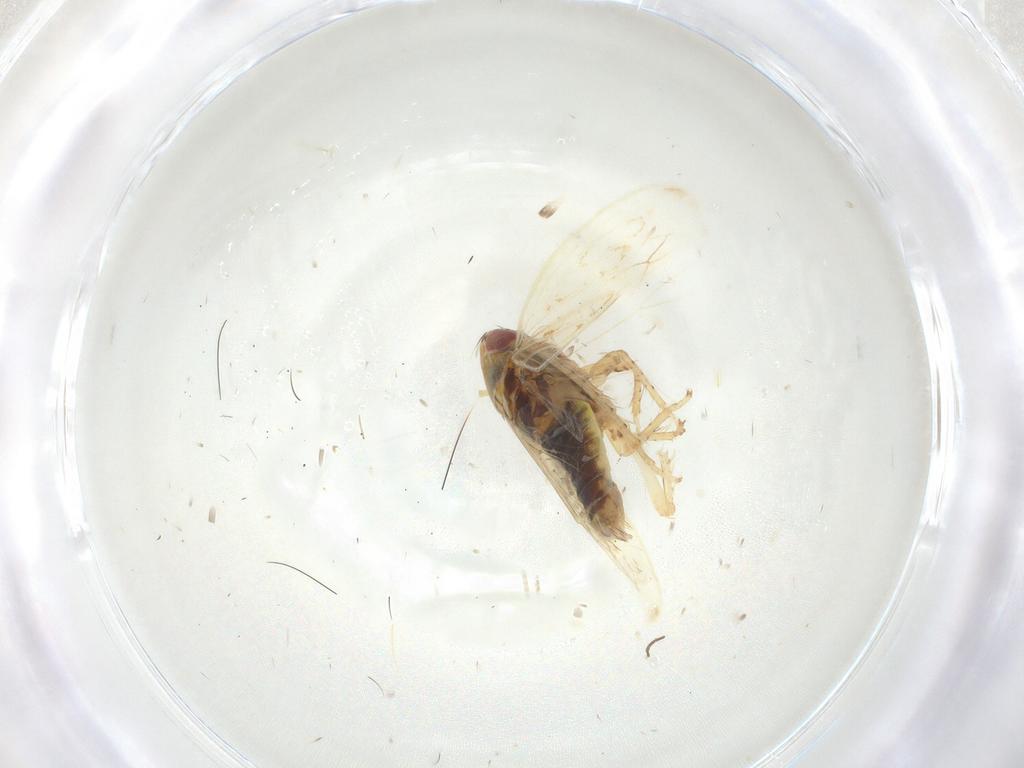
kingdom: Animalia
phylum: Arthropoda
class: Insecta
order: Hemiptera
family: Cicadellidae
